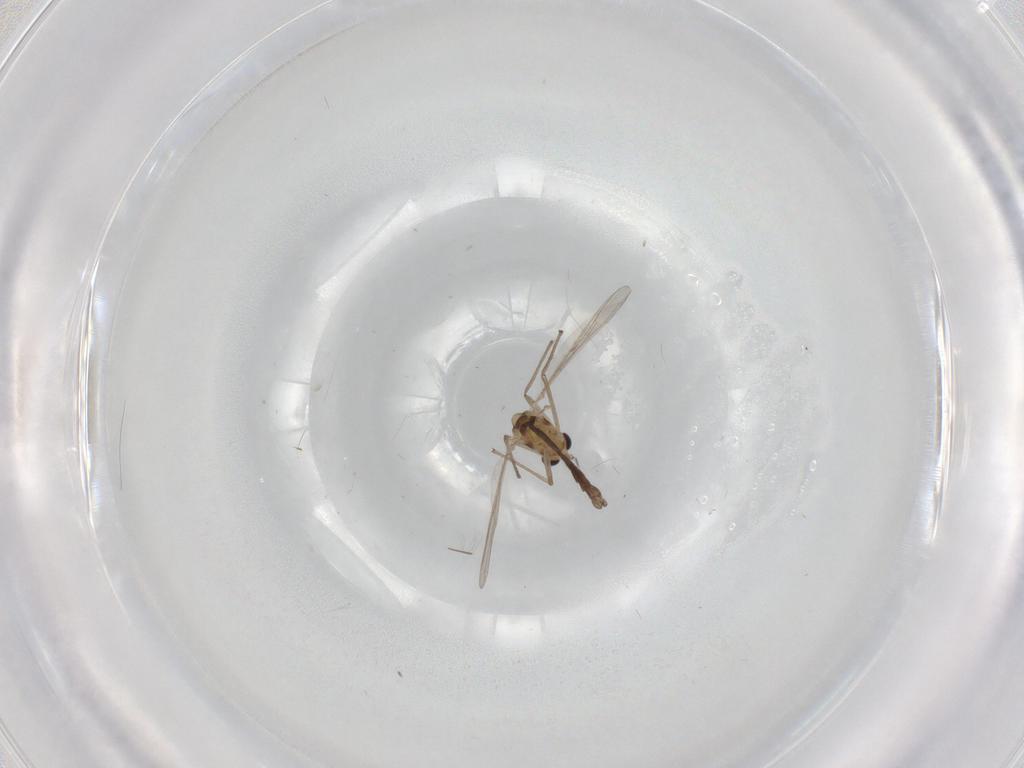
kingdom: Animalia
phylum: Arthropoda
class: Insecta
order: Diptera
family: Chironomidae
